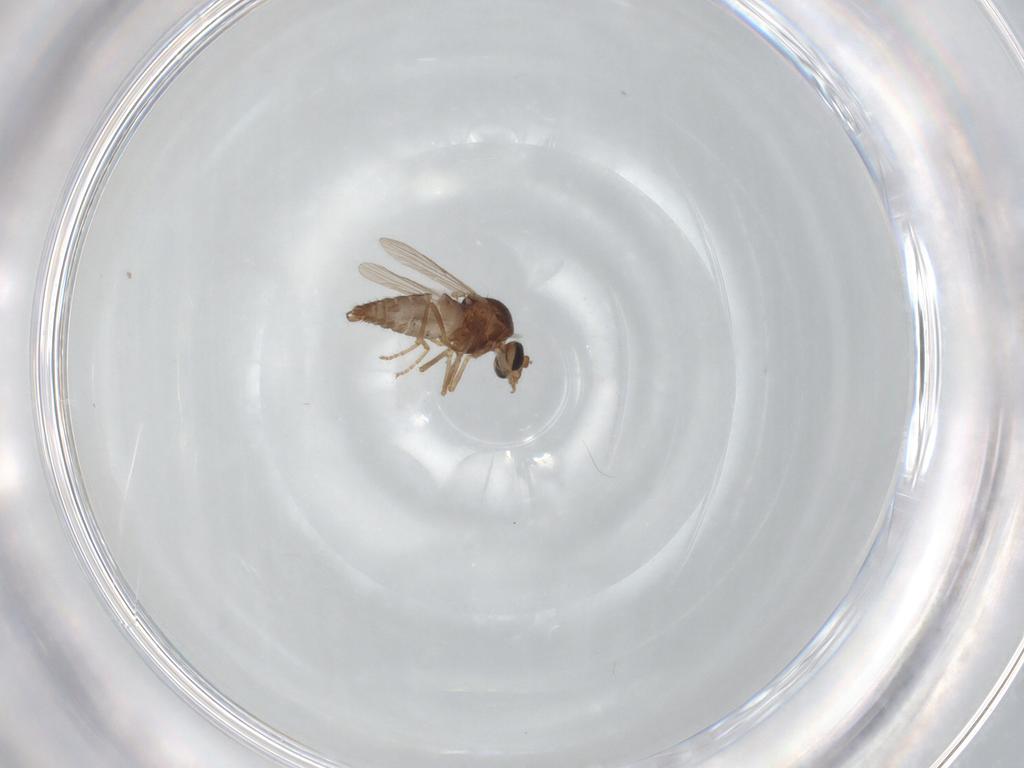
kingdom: Animalia
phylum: Arthropoda
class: Insecta
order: Diptera
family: Ceratopogonidae
